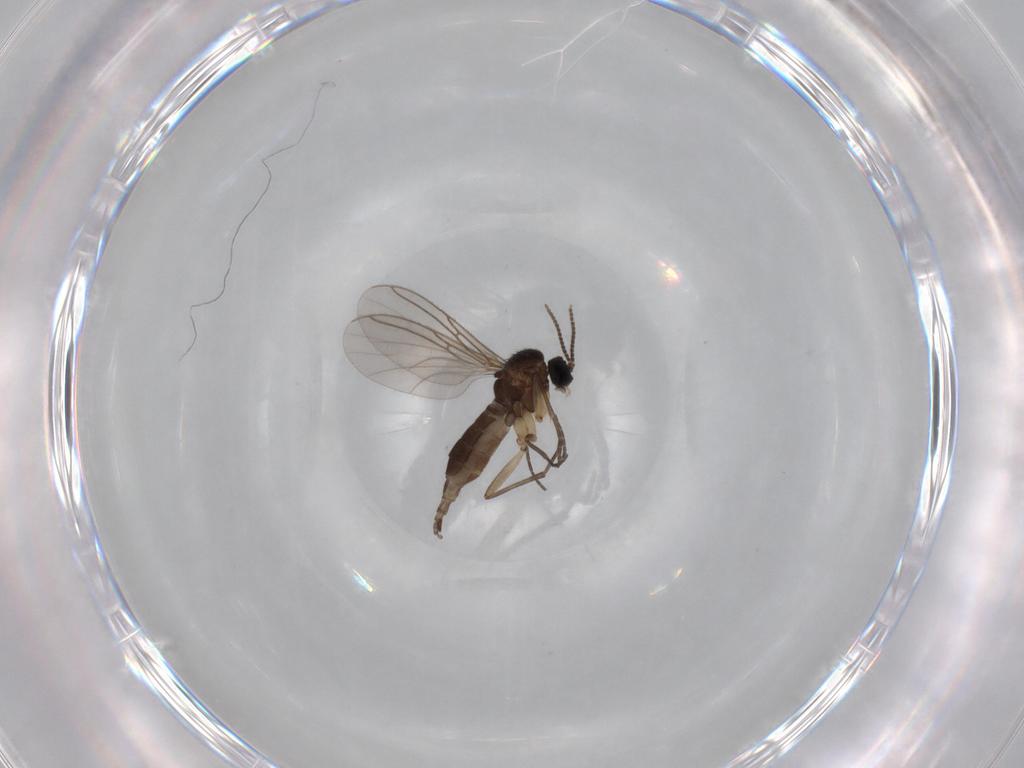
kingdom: Animalia
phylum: Arthropoda
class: Insecta
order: Diptera
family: Sciaridae
